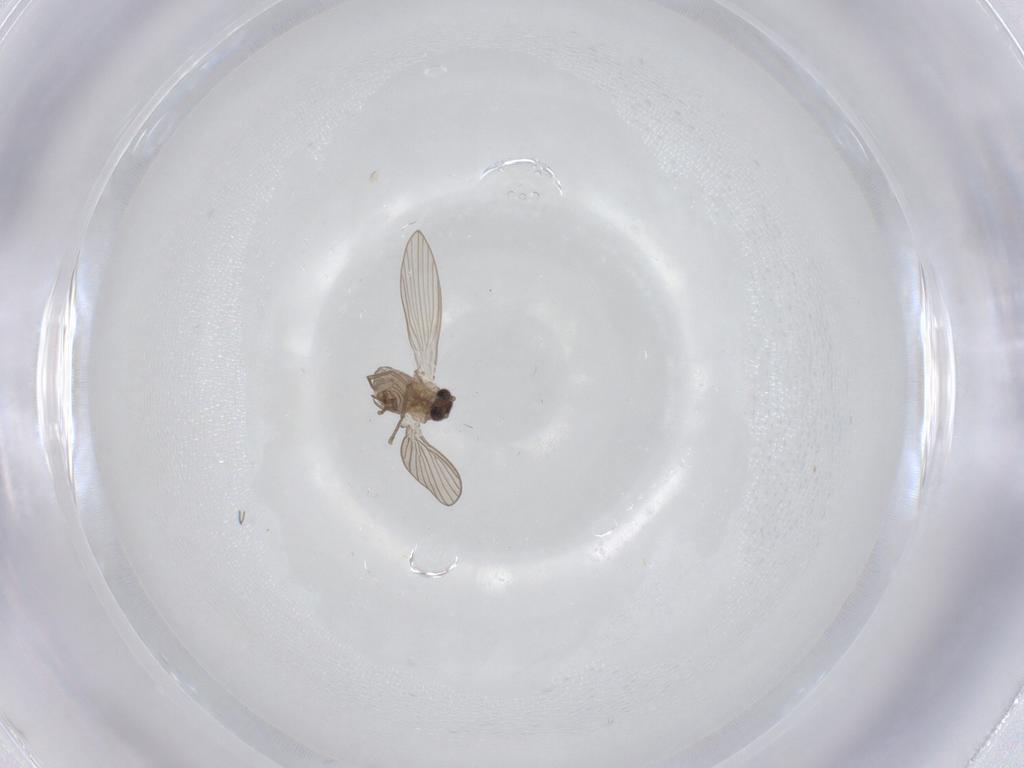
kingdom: Animalia
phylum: Arthropoda
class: Insecta
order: Diptera
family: Psychodidae
